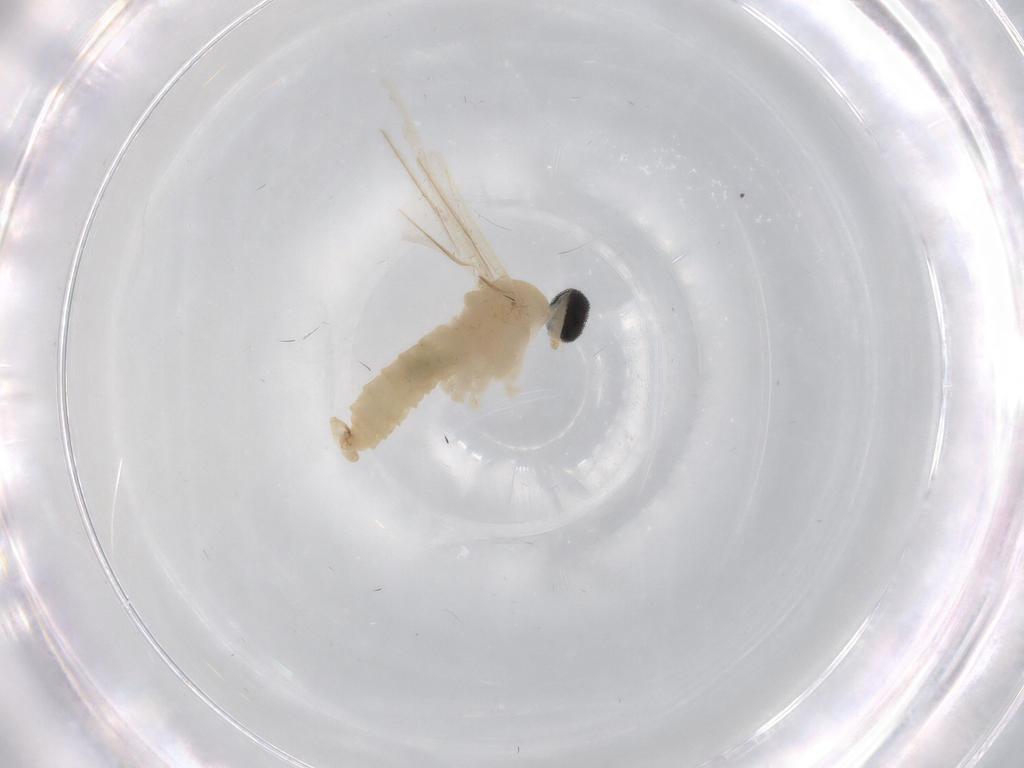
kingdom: Animalia
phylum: Arthropoda
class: Insecta
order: Diptera
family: Cecidomyiidae
